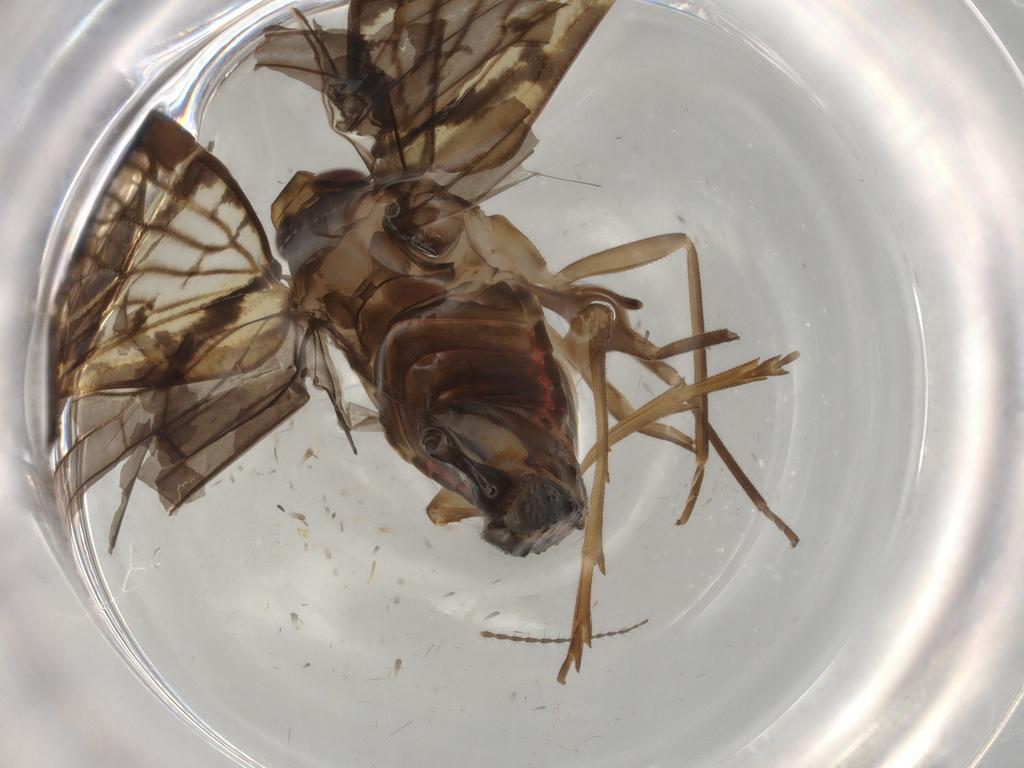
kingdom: Animalia
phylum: Arthropoda
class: Insecta
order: Hemiptera
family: Cixiidae
